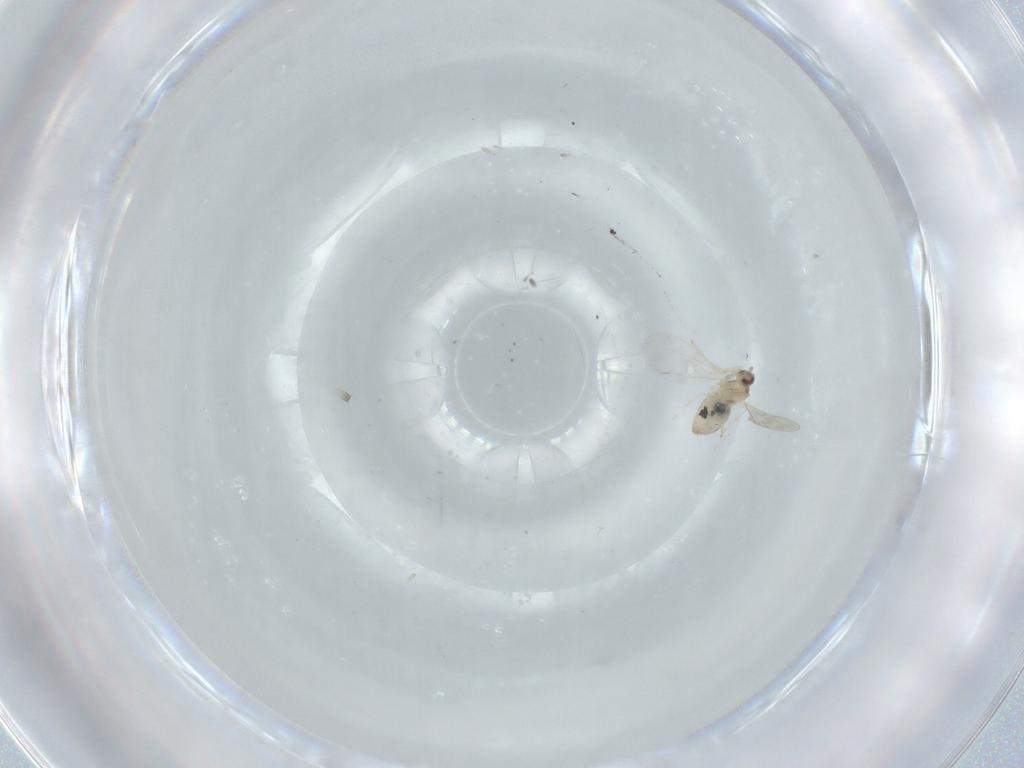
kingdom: Animalia
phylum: Arthropoda
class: Insecta
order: Diptera
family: Cecidomyiidae
